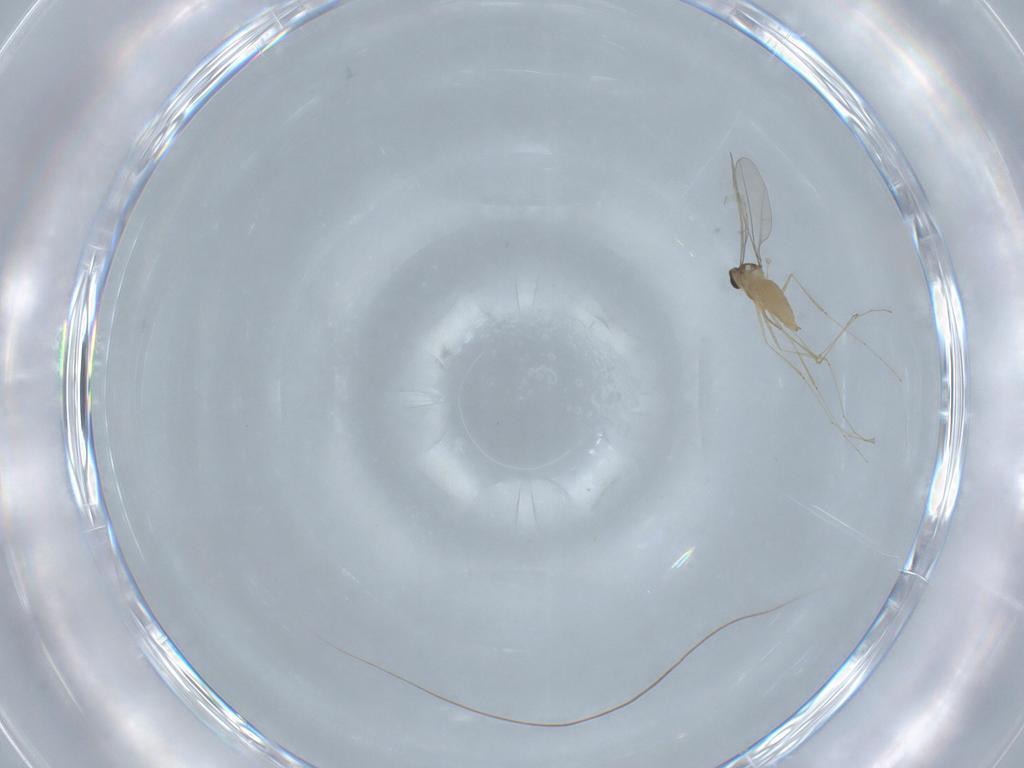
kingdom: Animalia
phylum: Arthropoda
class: Insecta
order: Diptera
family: Cecidomyiidae
